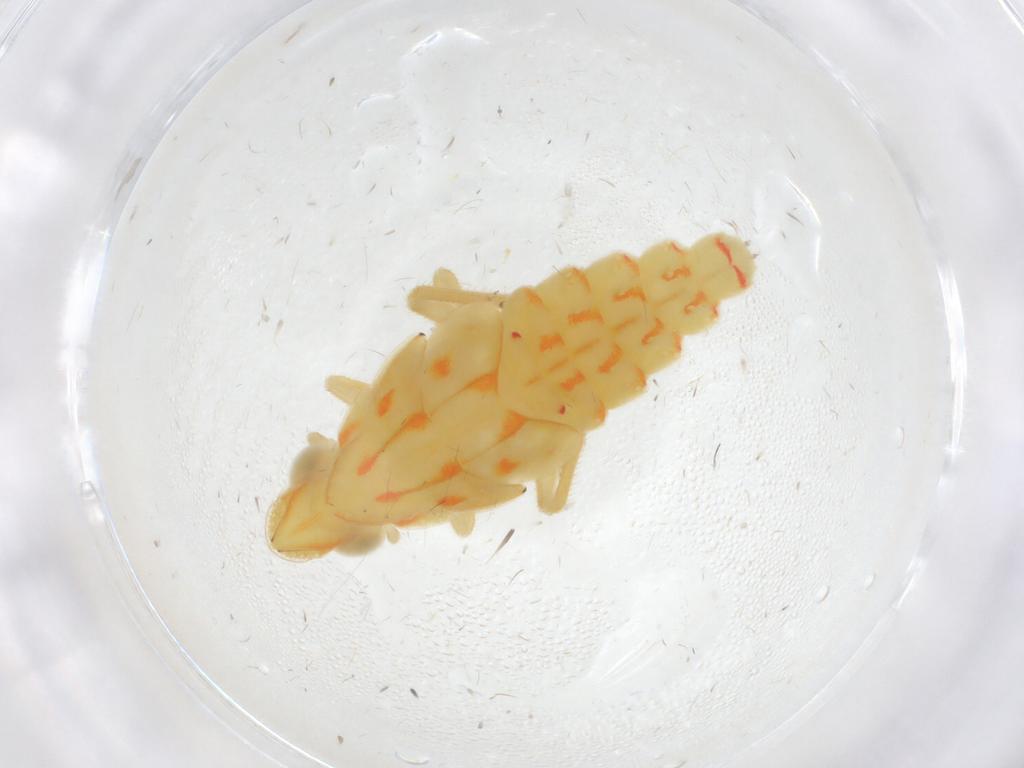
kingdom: Animalia
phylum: Arthropoda
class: Insecta
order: Hemiptera
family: Tropiduchidae
